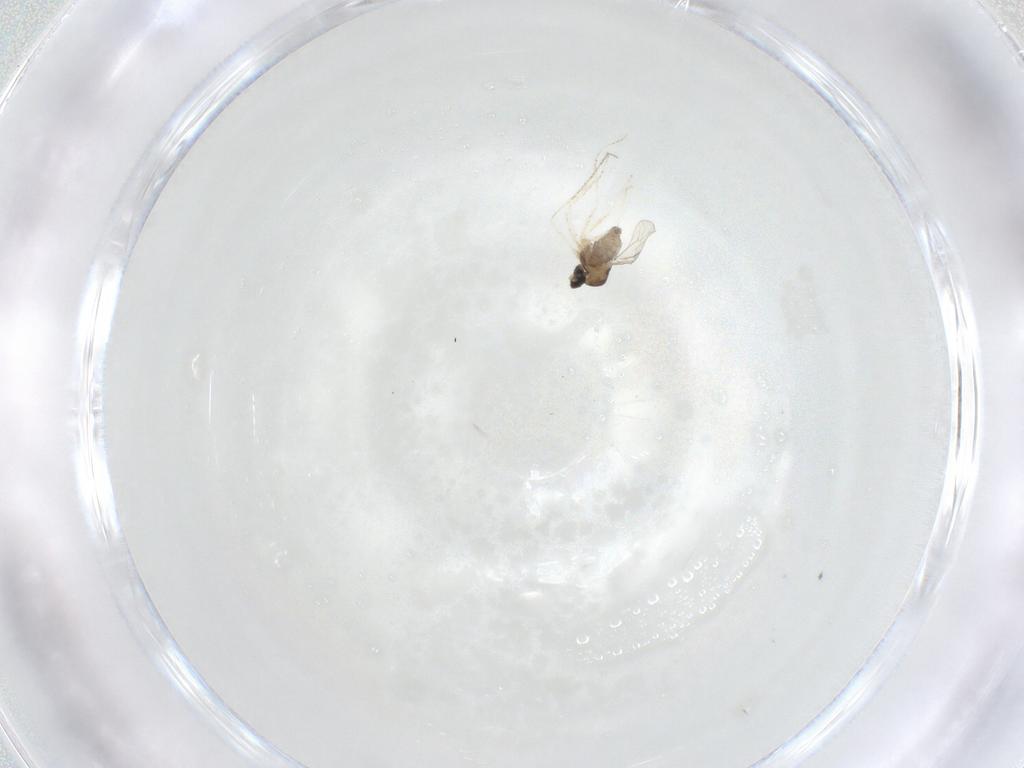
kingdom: Animalia
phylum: Arthropoda
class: Insecta
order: Diptera
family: Cecidomyiidae
